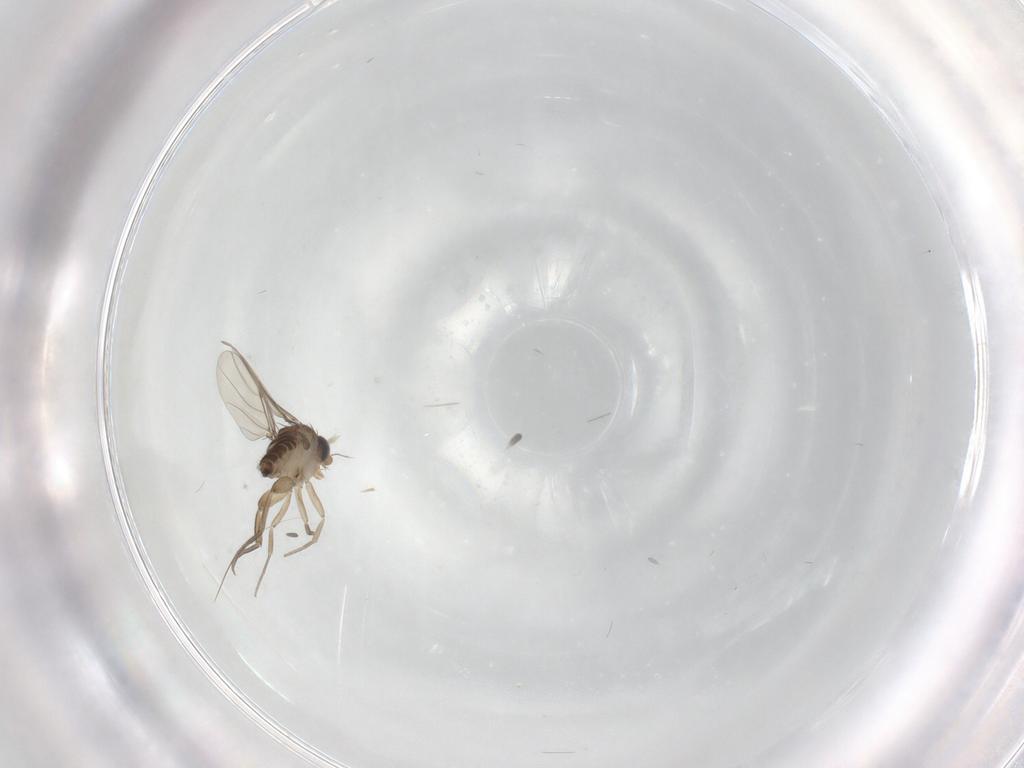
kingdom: Animalia
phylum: Arthropoda
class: Insecta
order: Diptera
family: Phoridae
